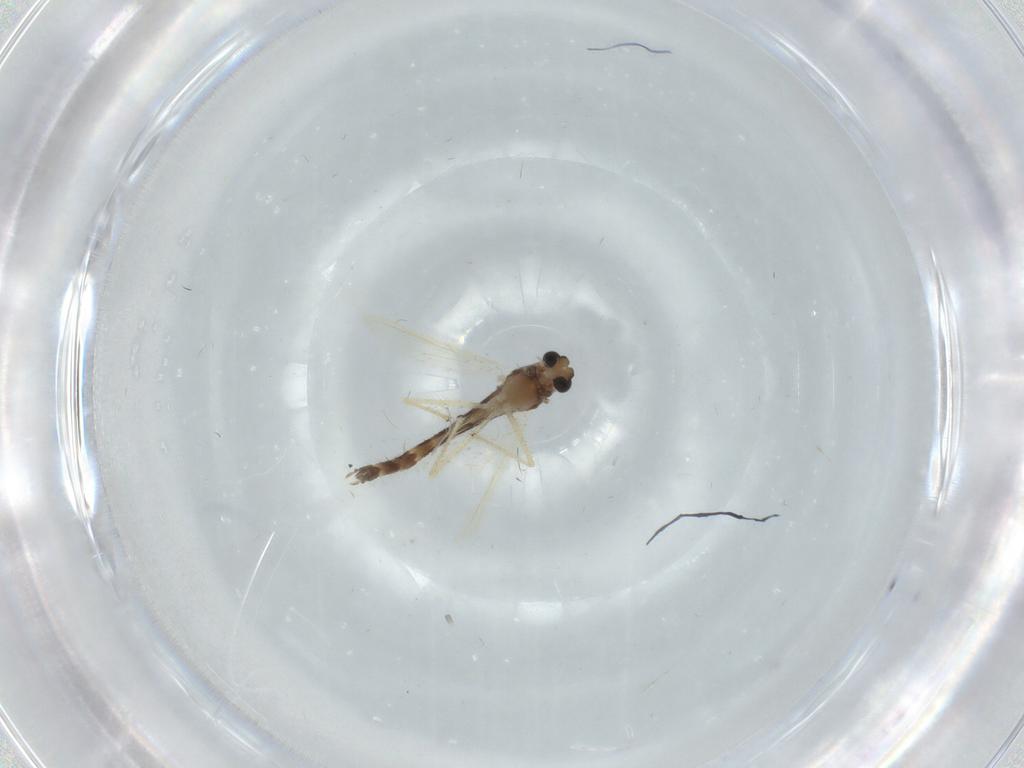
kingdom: Animalia
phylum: Arthropoda
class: Insecta
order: Diptera
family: Chironomidae
